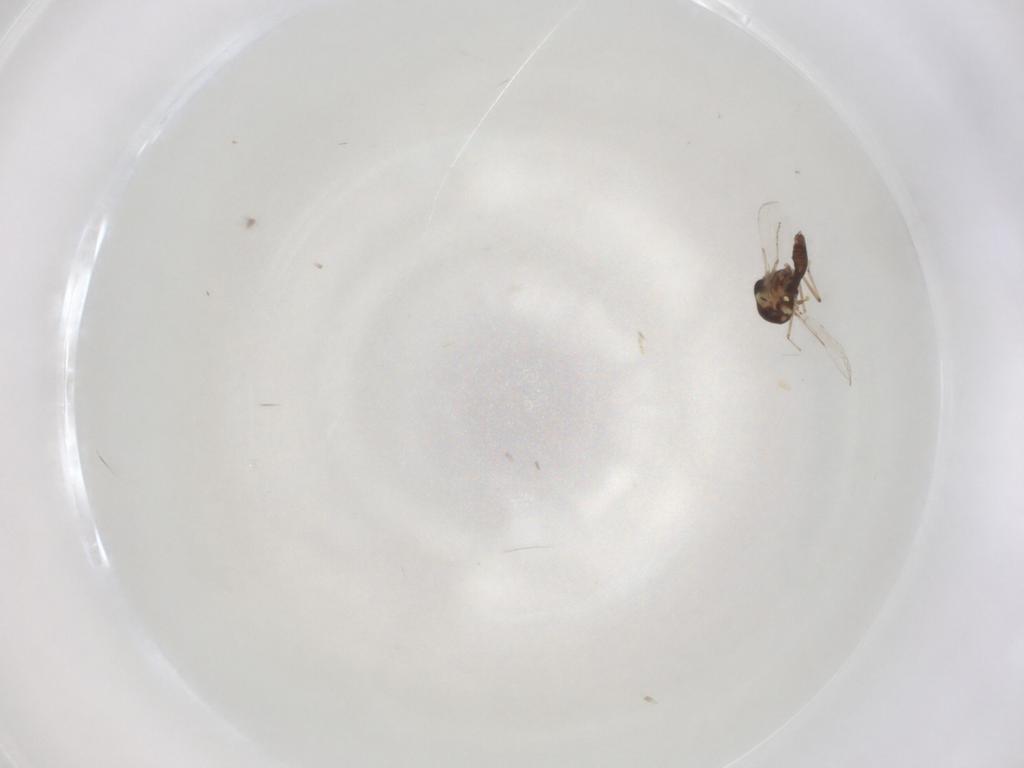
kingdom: Animalia
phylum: Arthropoda
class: Insecta
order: Diptera
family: Ceratopogonidae
